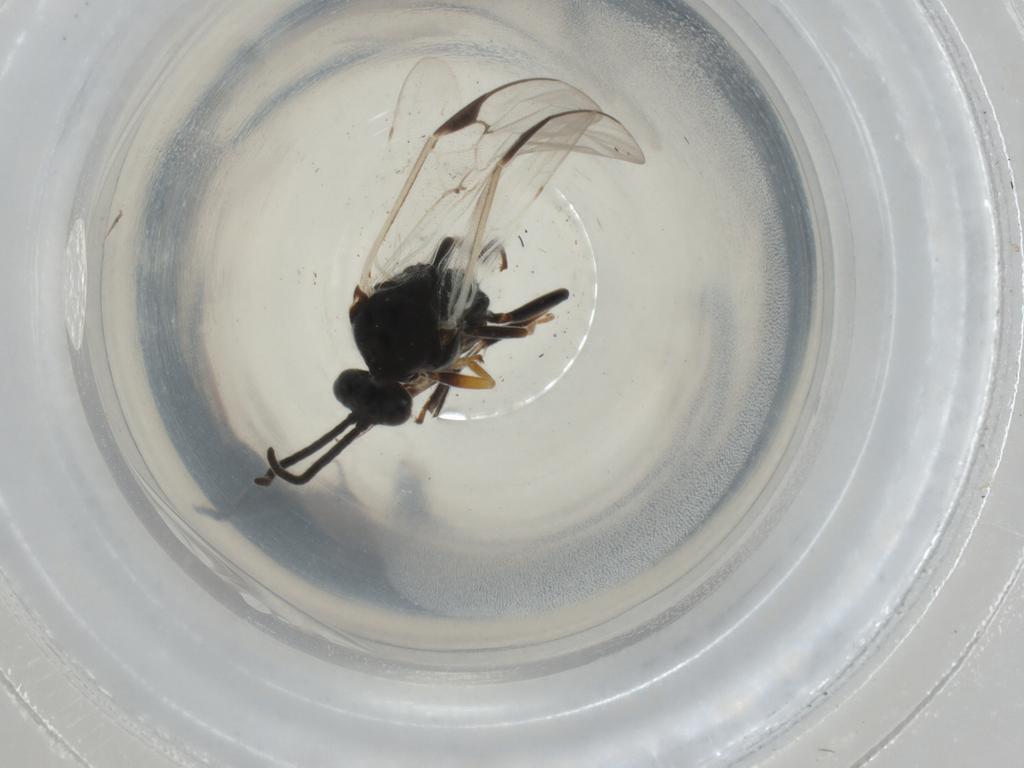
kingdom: Animalia
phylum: Arthropoda
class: Insecta
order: Hymenoptera
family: Braconidae
